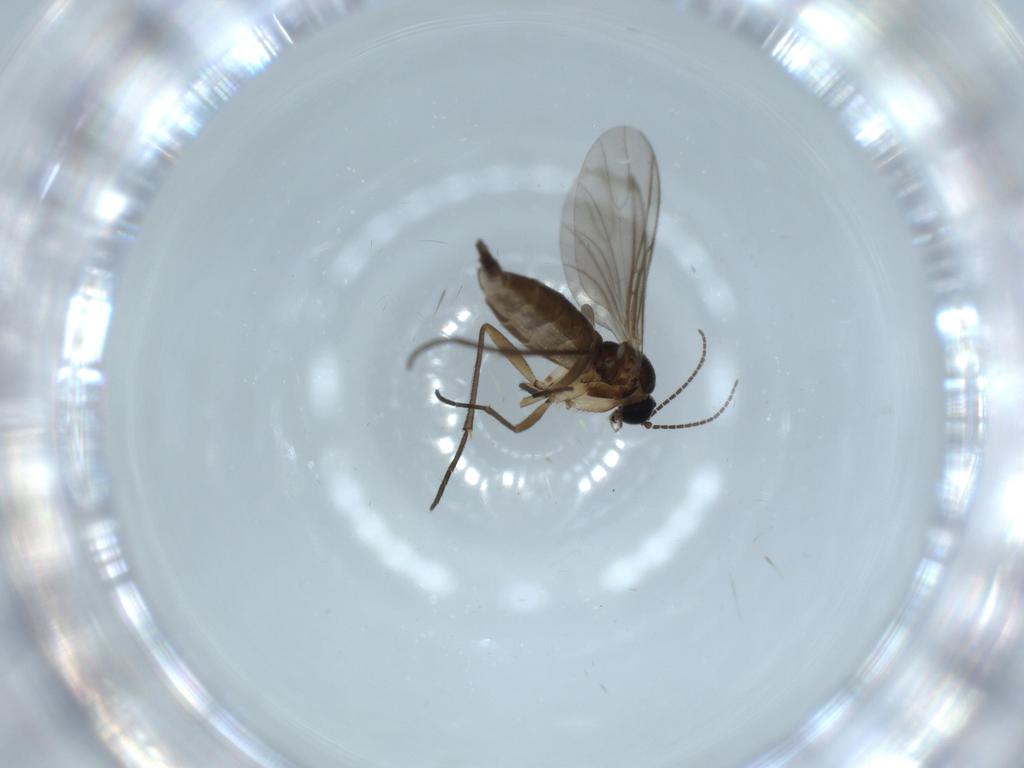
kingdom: Animalia
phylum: Arthropoda
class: Insecta
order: Diptera
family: Sciaridae
